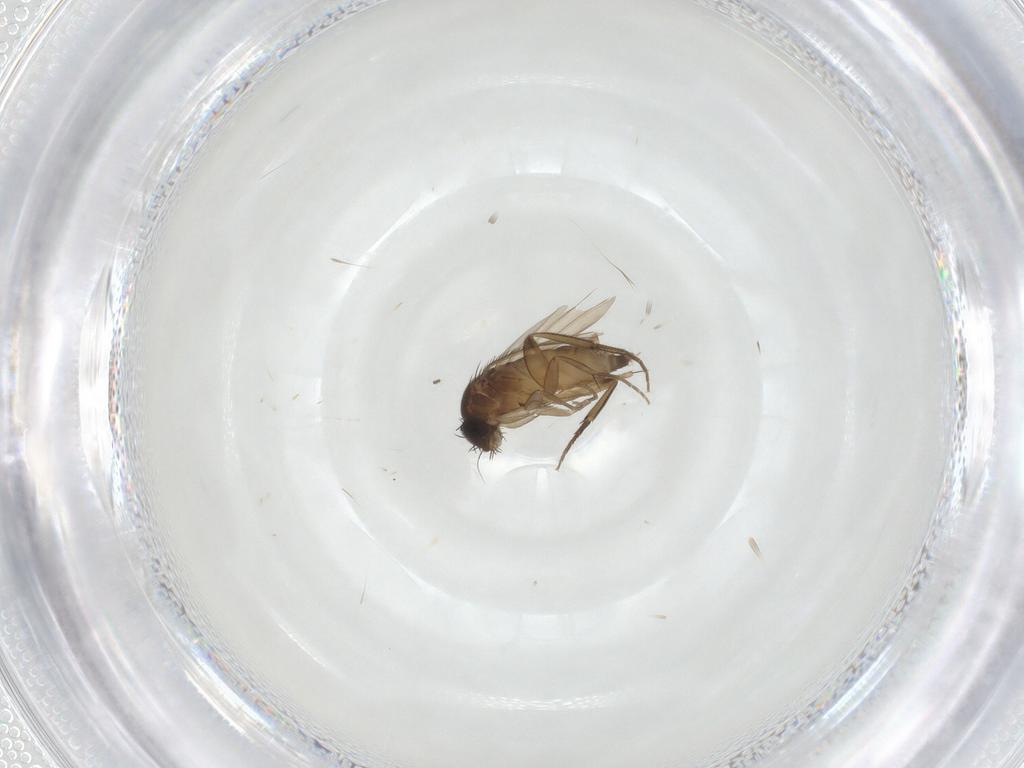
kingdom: Animalia
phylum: Arthropoda
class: Insecta
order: Diptera
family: Phoridae
